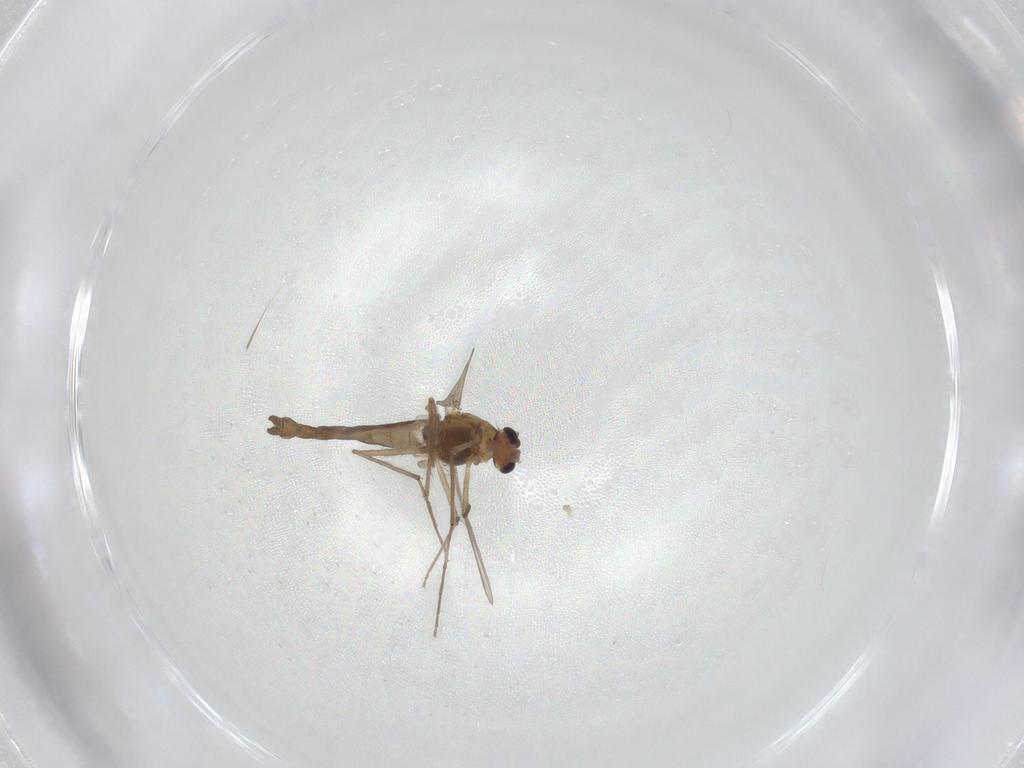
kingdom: Animalia
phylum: Arthropoda
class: Insecta
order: Diptera
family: Chironomidae
